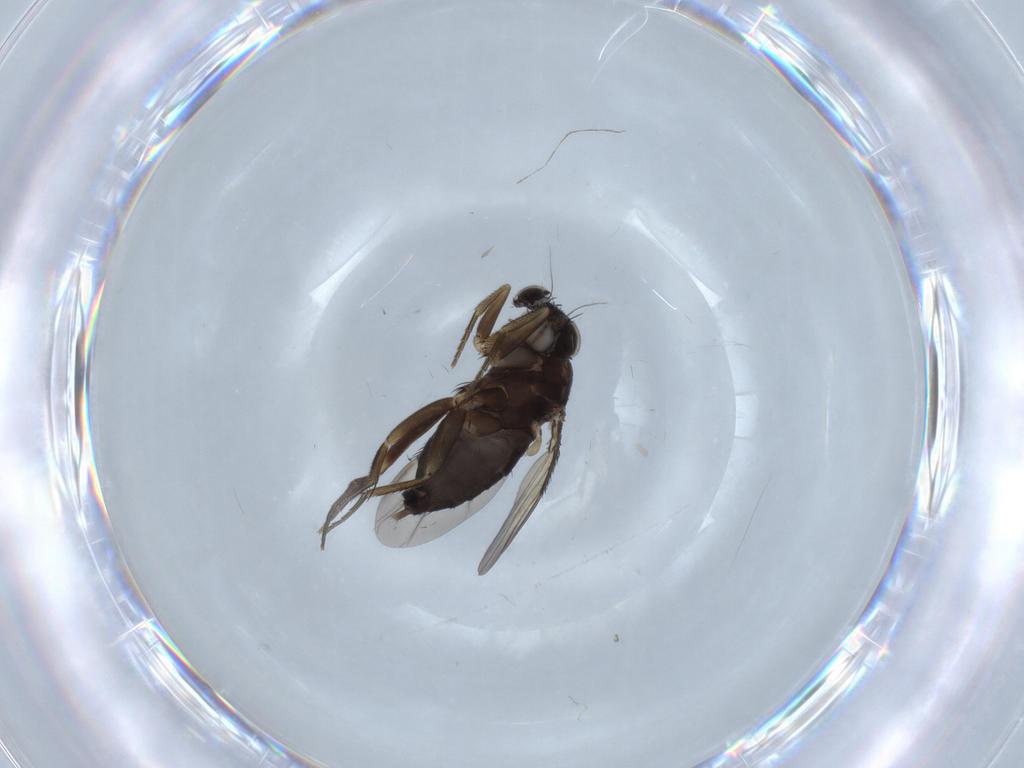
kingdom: Animalia
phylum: Arthropoda
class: Insecta
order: Diptera
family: Phoridae
